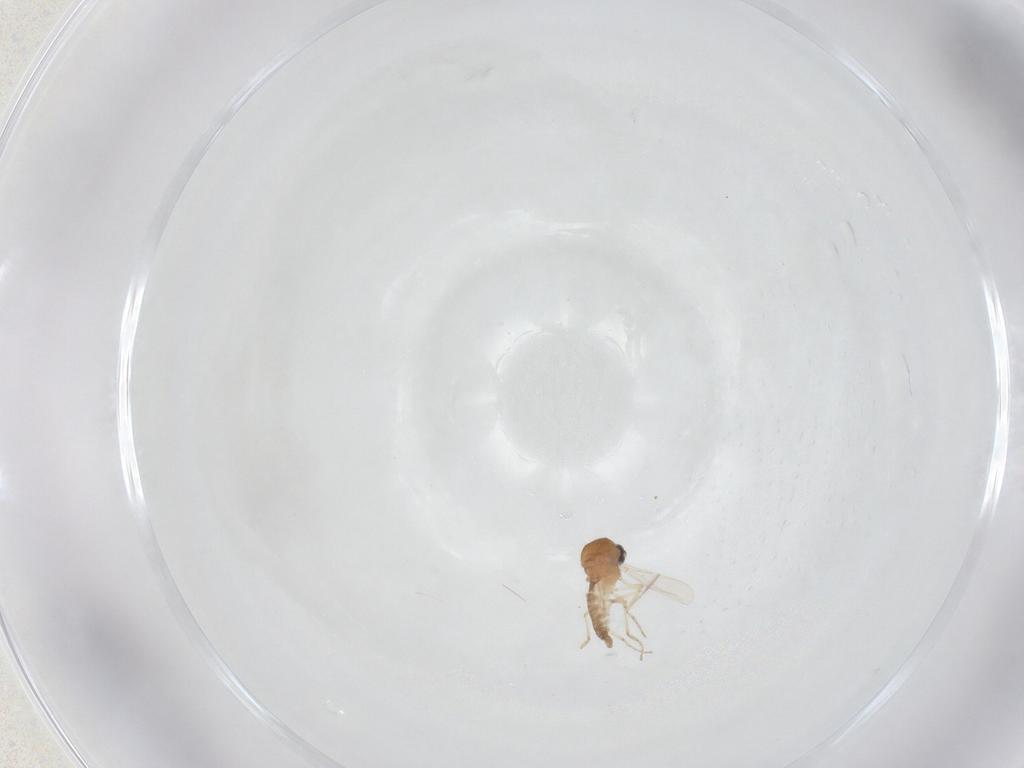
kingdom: Animalia
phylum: Arthropoda
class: Insecta
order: Diptera
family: Ceratopogonidae
